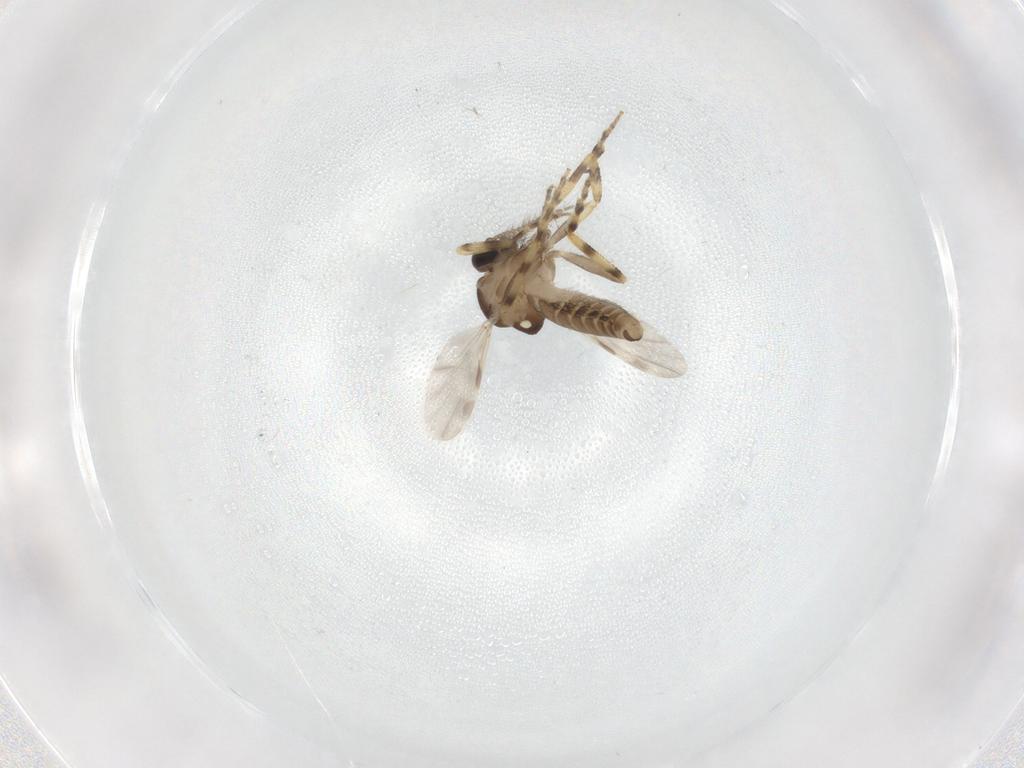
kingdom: Animalia
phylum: Arthropoda
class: Insecta
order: Diptera
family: Ceratopogonidae
